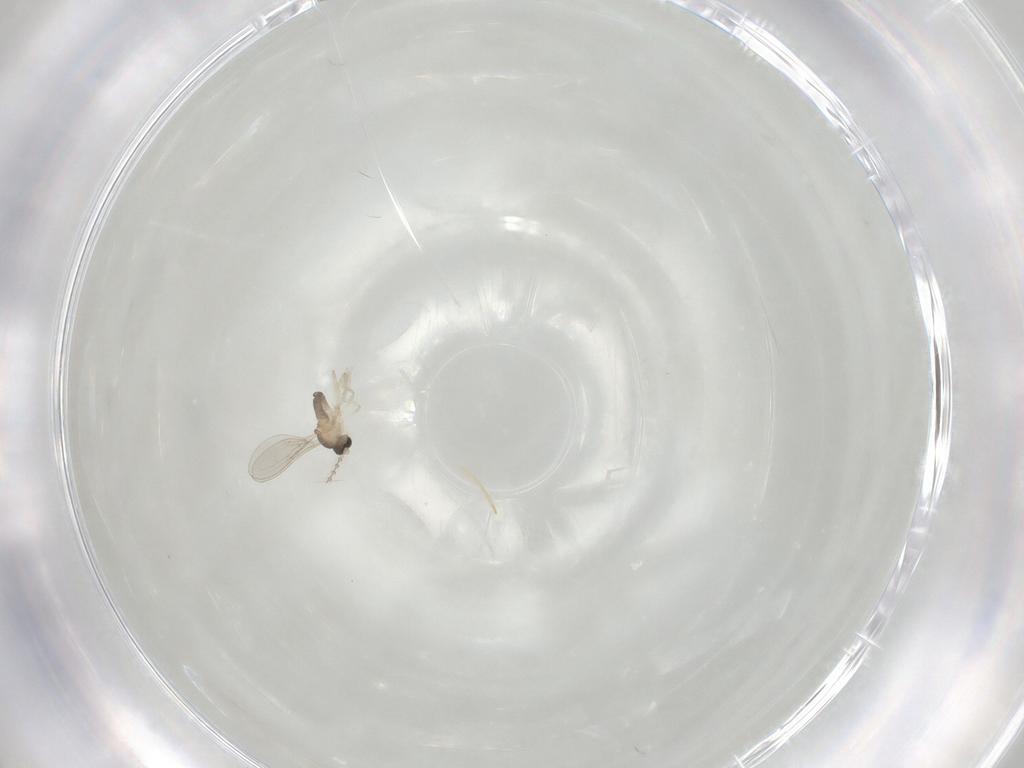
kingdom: Animalia
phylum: Arthropoda
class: Insecta
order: Diptera
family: Cecidomyiidae
